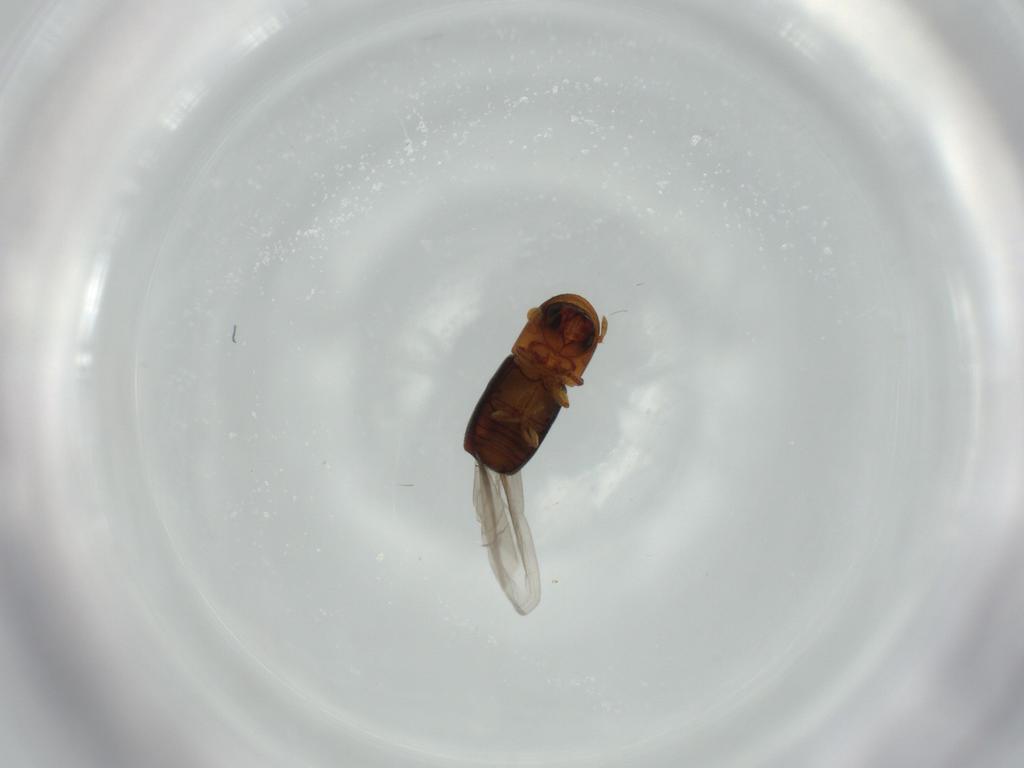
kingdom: Animalia
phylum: Arthropoda
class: Insecta
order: Coleoptera
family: Curculionidae
